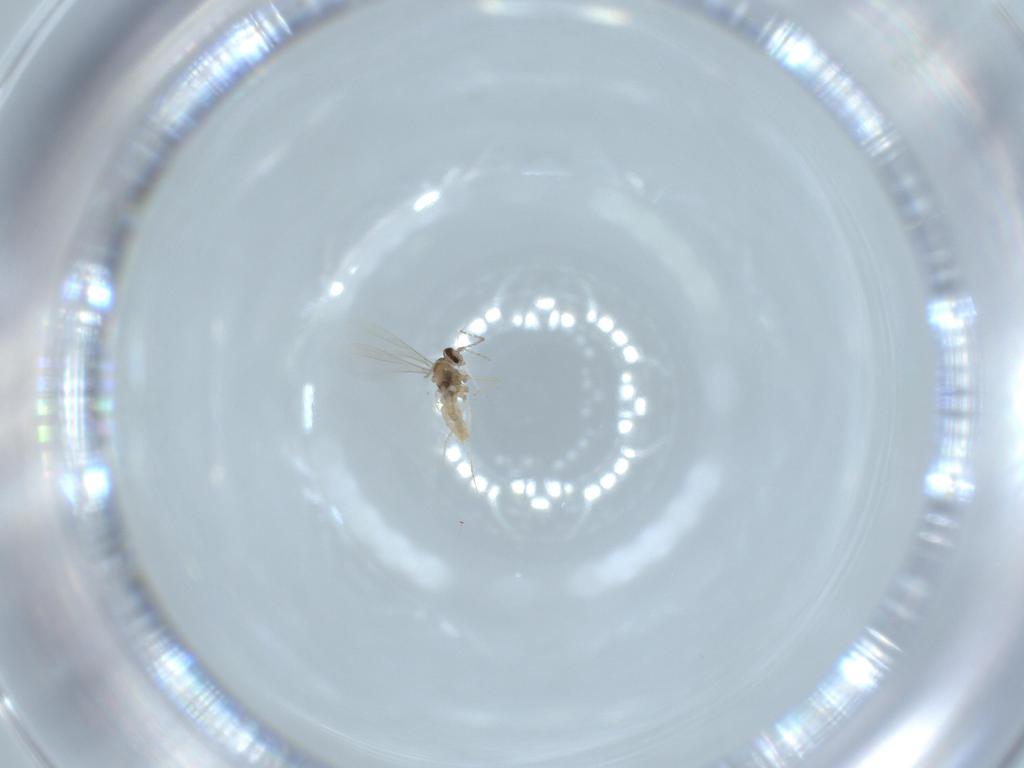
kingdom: Animalia
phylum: Arthropoda
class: Insecta
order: Diptera
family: Cecidomyiidae
